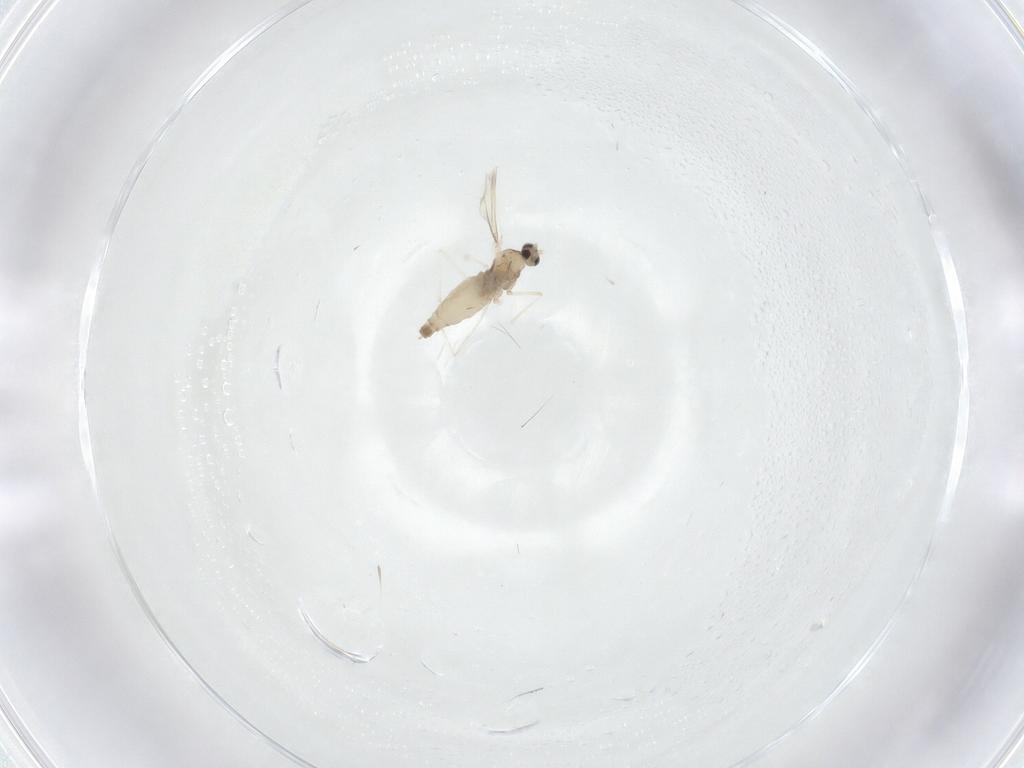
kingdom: Animalia
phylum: Arthropoda
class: Insecta
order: Diptera
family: Cecidomyiidae
